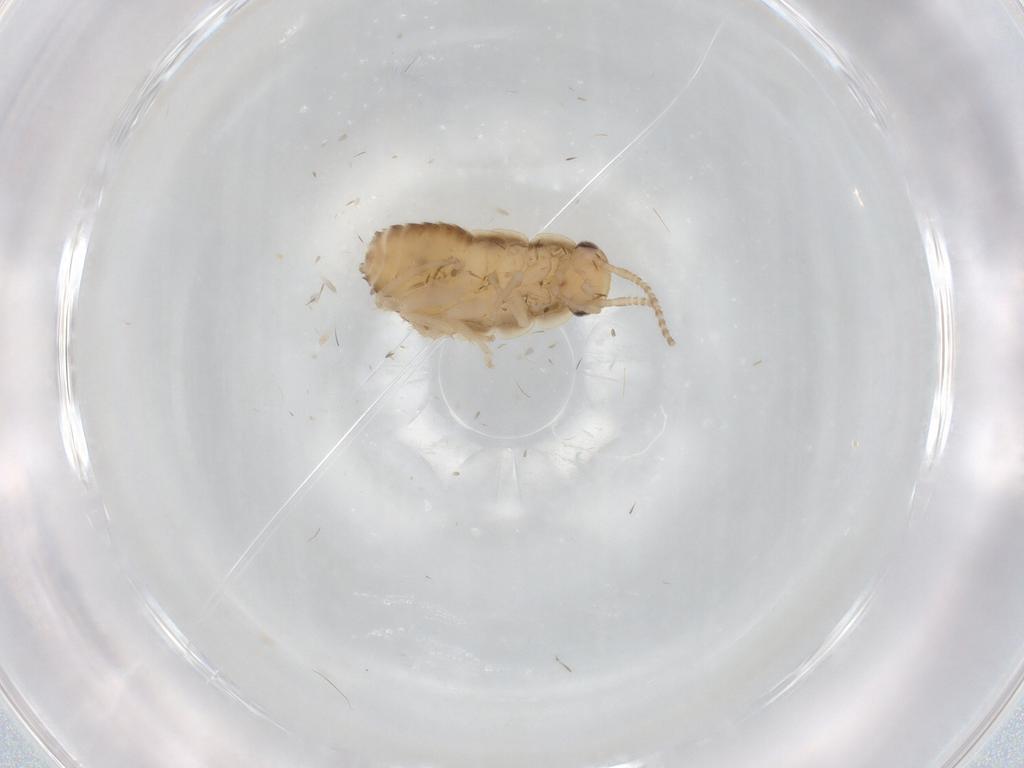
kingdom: Animalia
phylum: Arthropoda
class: Insecta
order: Blattodea
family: Ectobiidae
